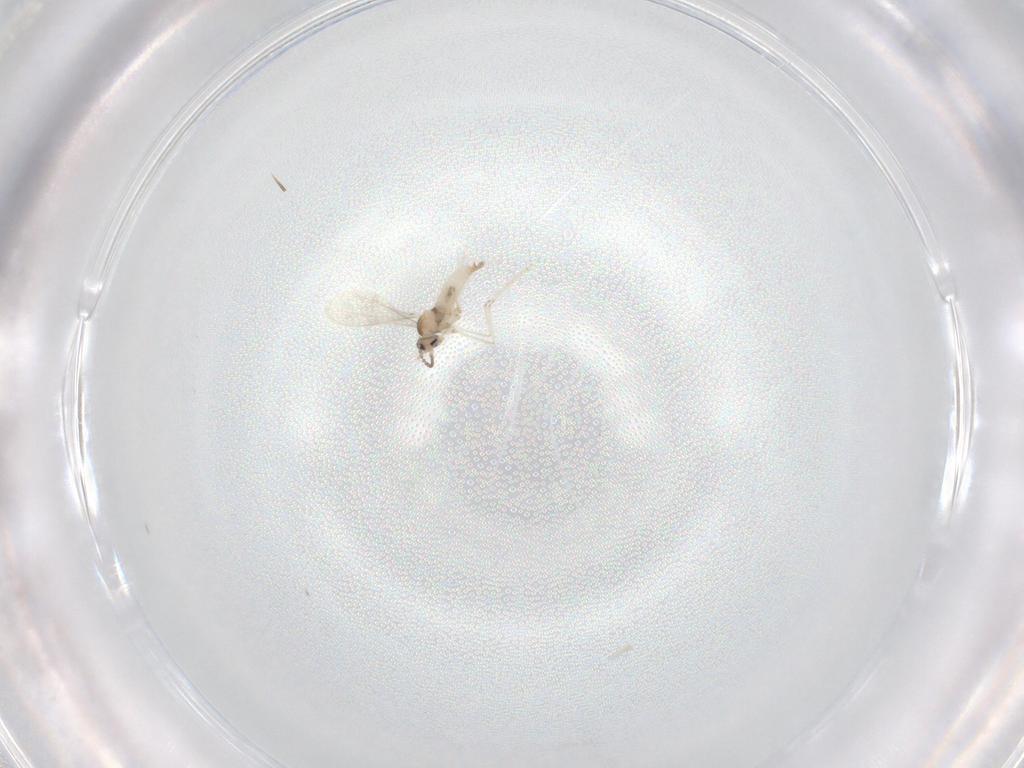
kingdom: Animalia
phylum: Arthropoda
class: Insecta
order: Diptera
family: Cecidomyiidae
